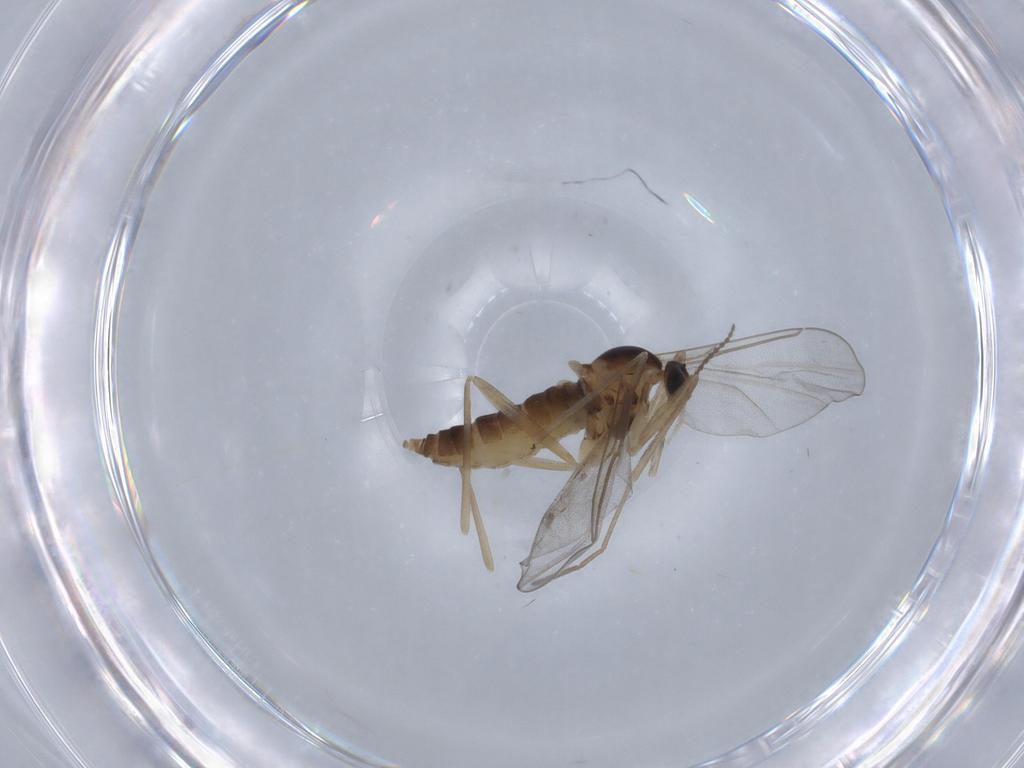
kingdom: Animalia
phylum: Arthropoda
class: Insecta
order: Diptera
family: Cecidomyiidae
